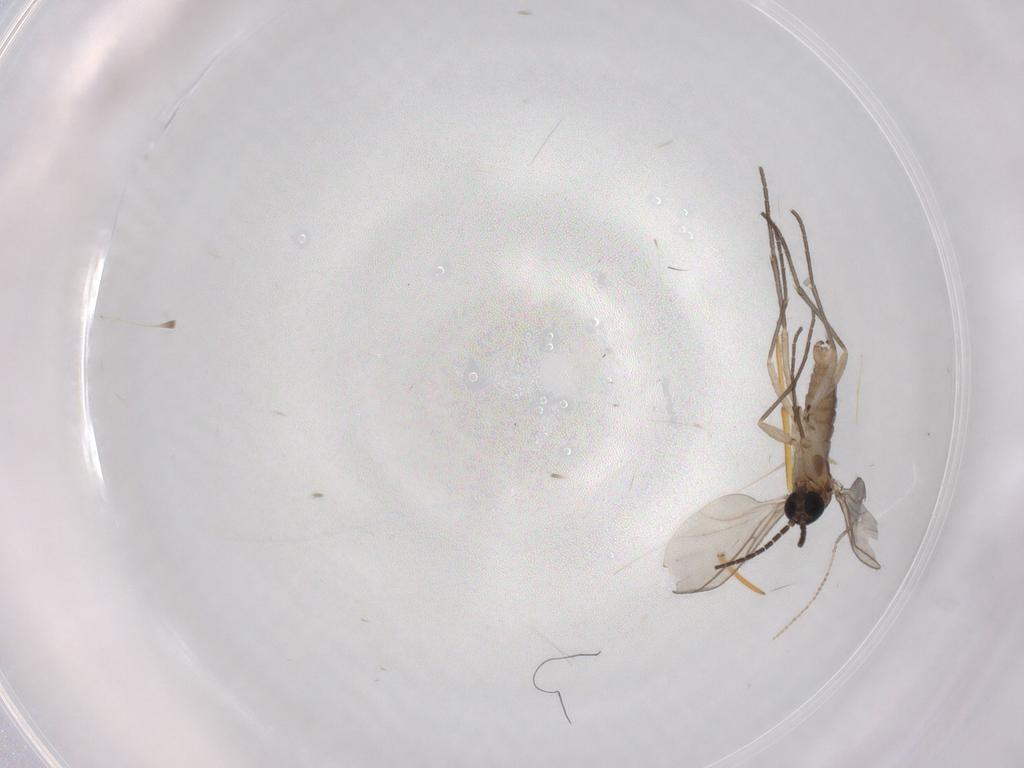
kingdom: Animalia
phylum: Arthropoda
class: Insecta
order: Diptera
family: Sciaridae
